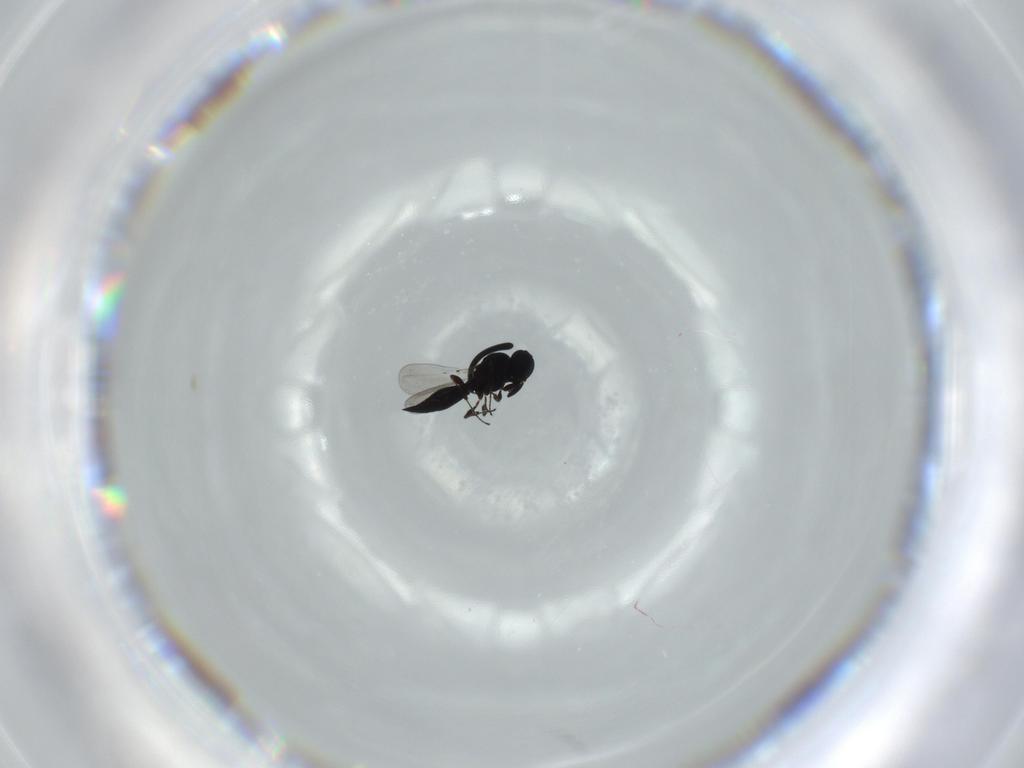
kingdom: Animalia
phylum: Arthropoda
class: Insecta
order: Hymenoptera
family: Platygastridae
